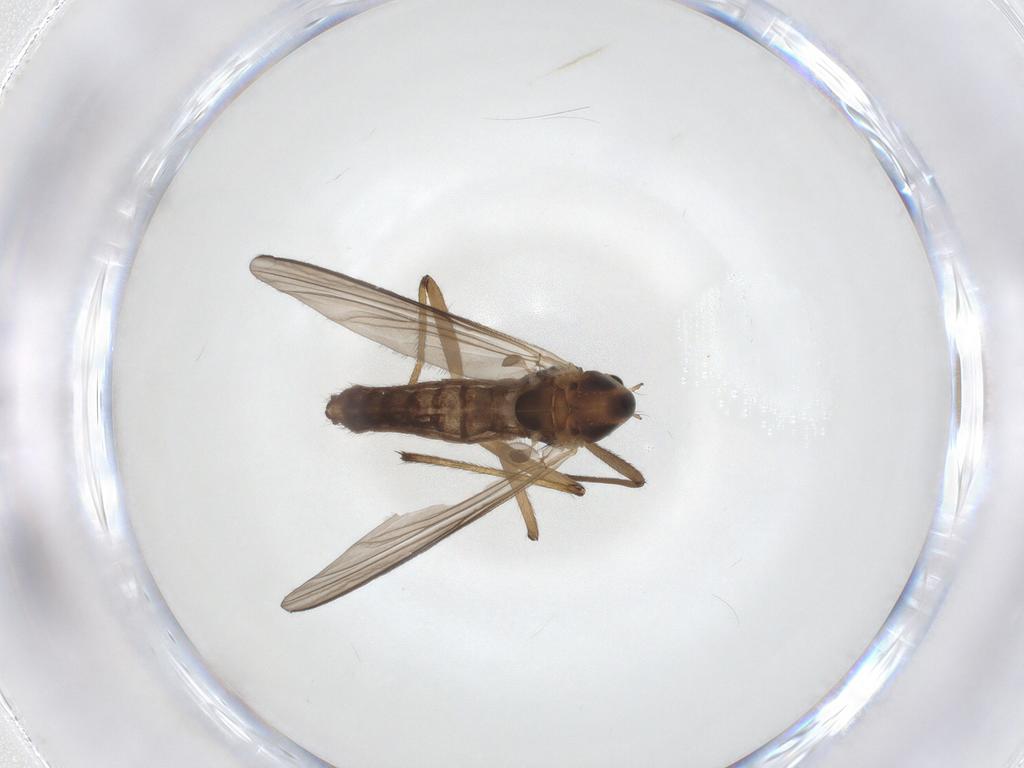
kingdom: Animalia
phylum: Arthropoda
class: Insecta
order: Diptera
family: Chironomidae
